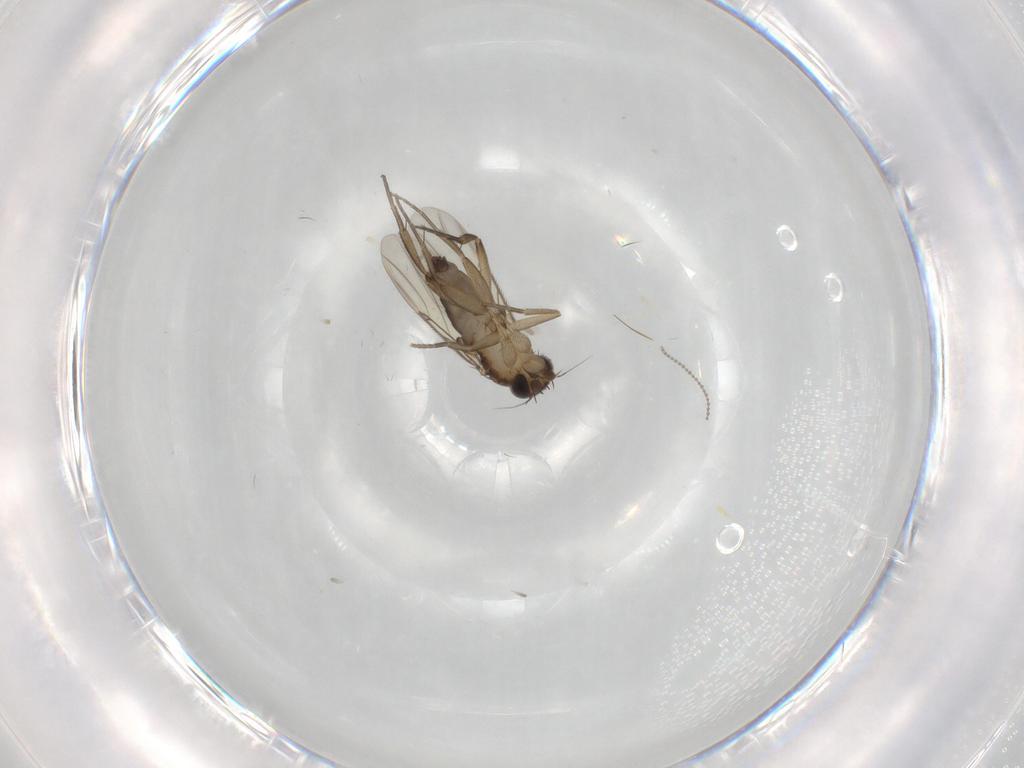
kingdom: Animalia
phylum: Arthropoda
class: Insecta
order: Diptera
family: Phoridae
